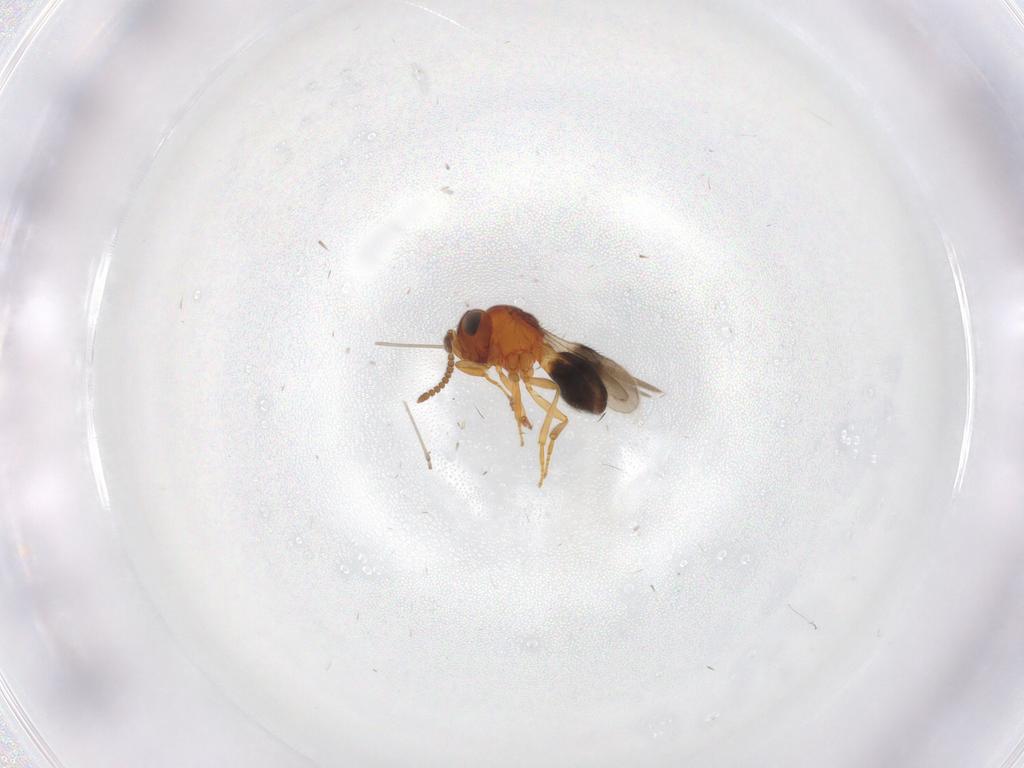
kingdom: Animalia
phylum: Arthropoda
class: Insecta
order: Hymenoptera
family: Scelionidae
